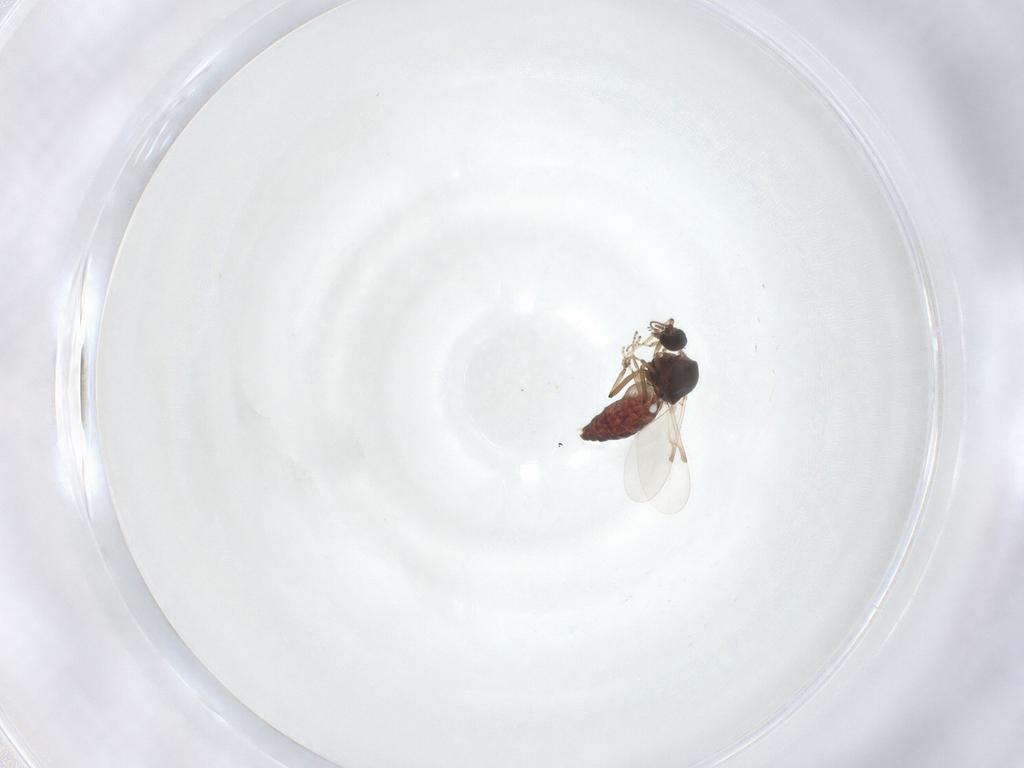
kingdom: Animalia
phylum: Arthropoda
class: Insecta
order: Diptera
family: Ceratopogonidae
